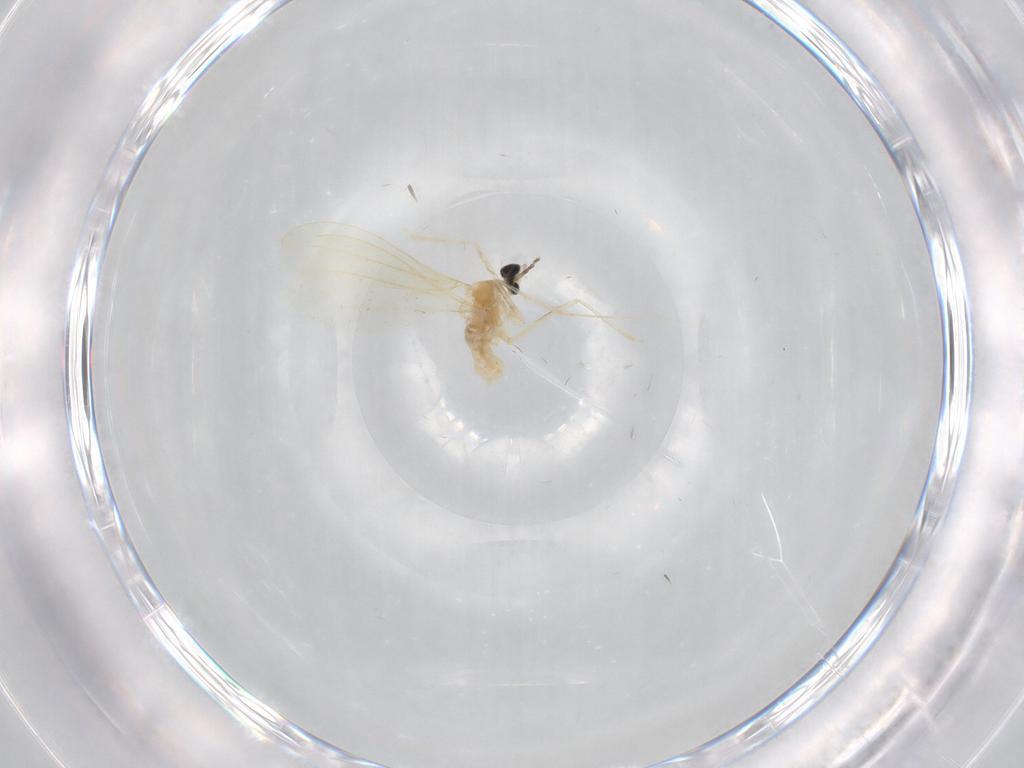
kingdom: Animalia
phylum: Arthropoda
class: Insecta
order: Diptera
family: Cecidomyiidae
